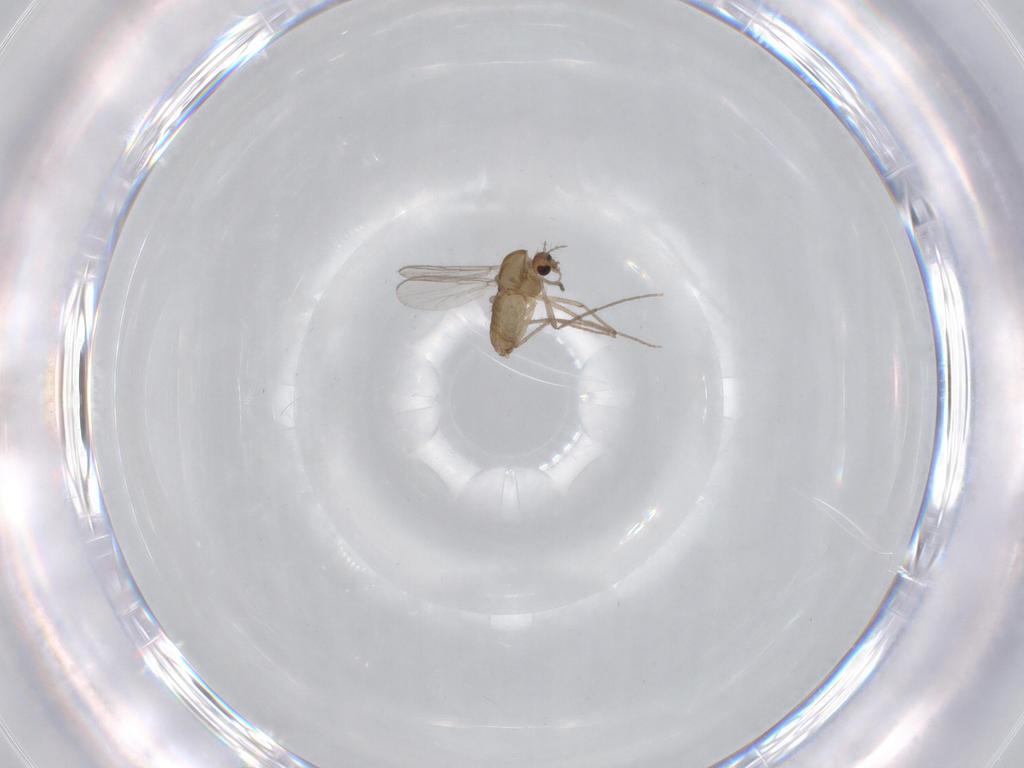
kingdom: Animalia
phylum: Arthropoda
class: Insecta
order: Diptera
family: Chironomidae
